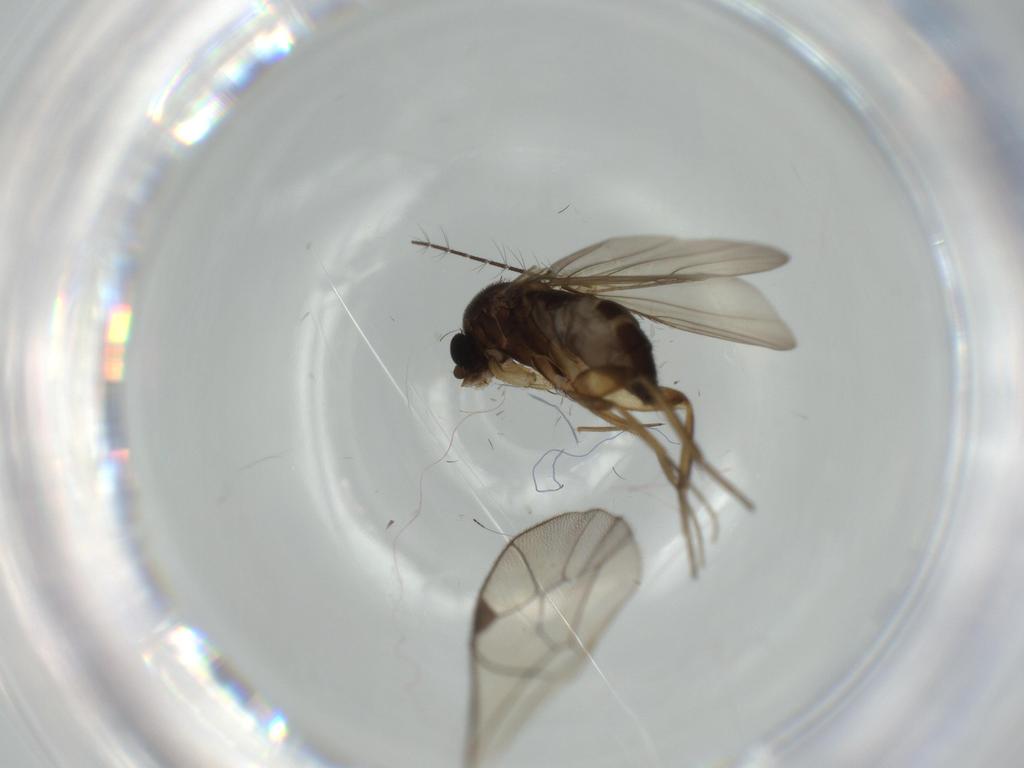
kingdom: Animalia
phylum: Arthropoda
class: Insecta
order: Diptera
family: Phoridae
